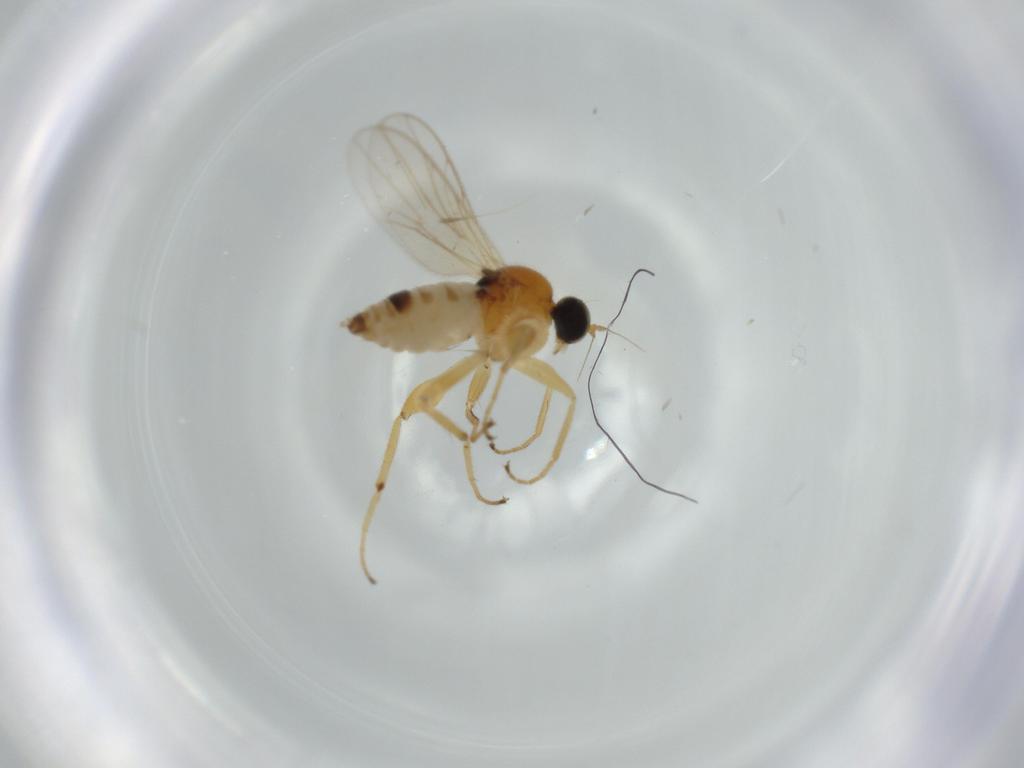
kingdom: Animalia
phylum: Arthropoda
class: Insecta
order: Diptera
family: Hybotidae
